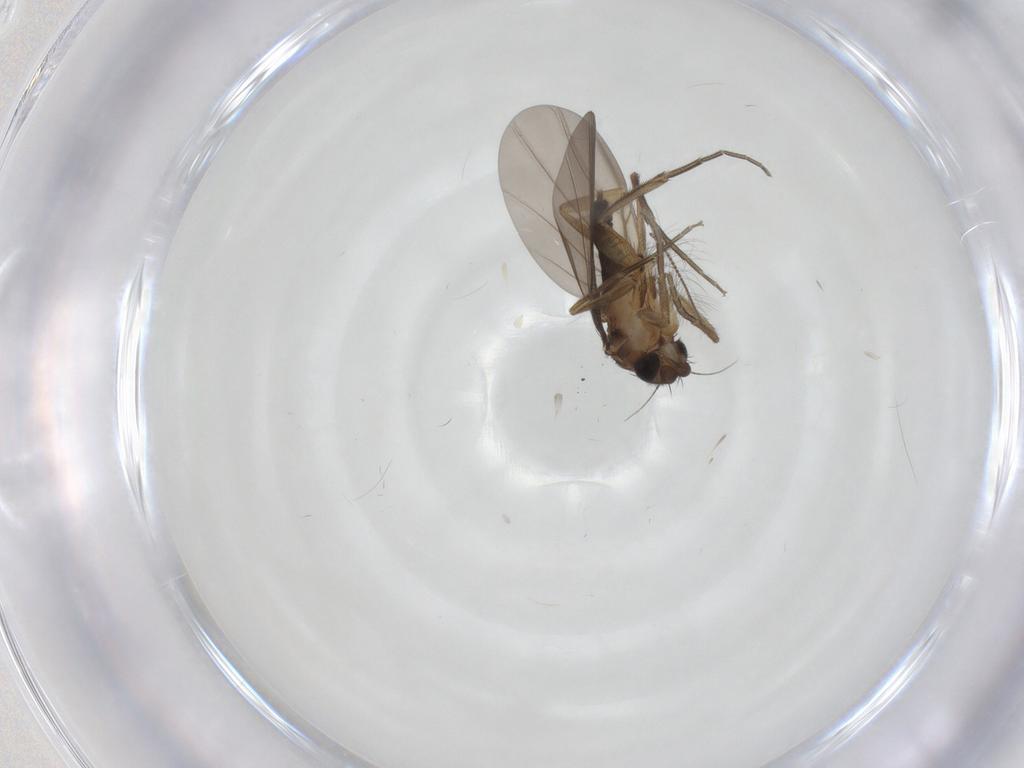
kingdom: Animalia
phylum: Arthropoda
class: Insecta
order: Diptera
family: Phoridae
